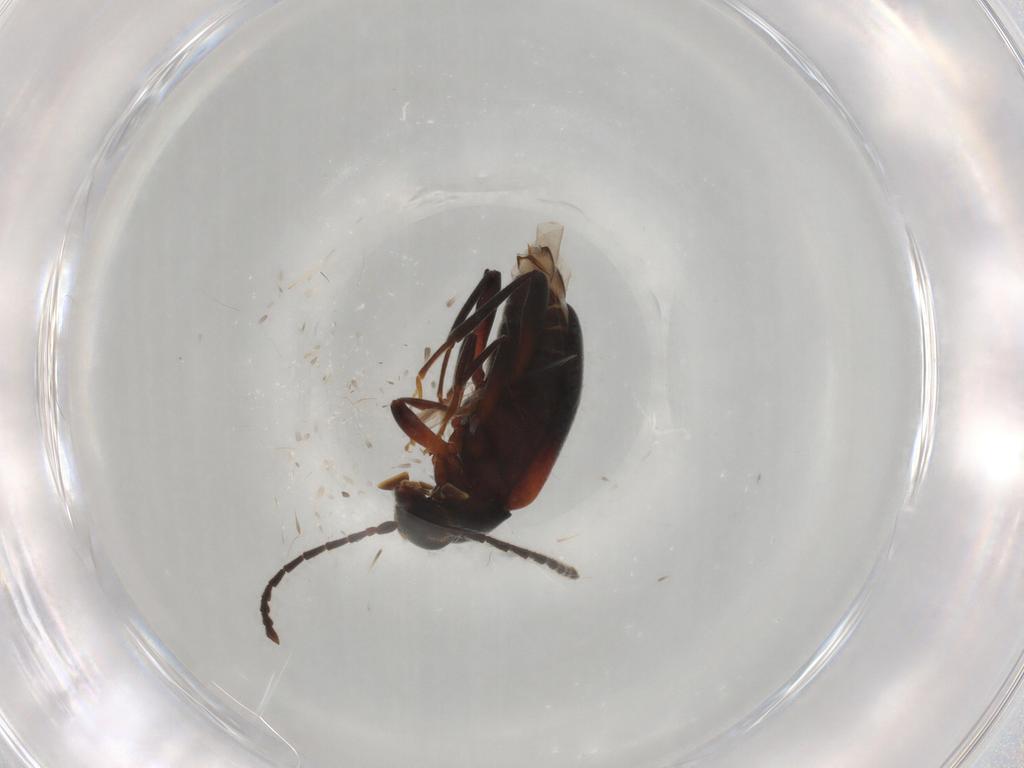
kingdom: Animalia
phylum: Arthropoda
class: Insecta
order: Coleoptera
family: Aderidae
